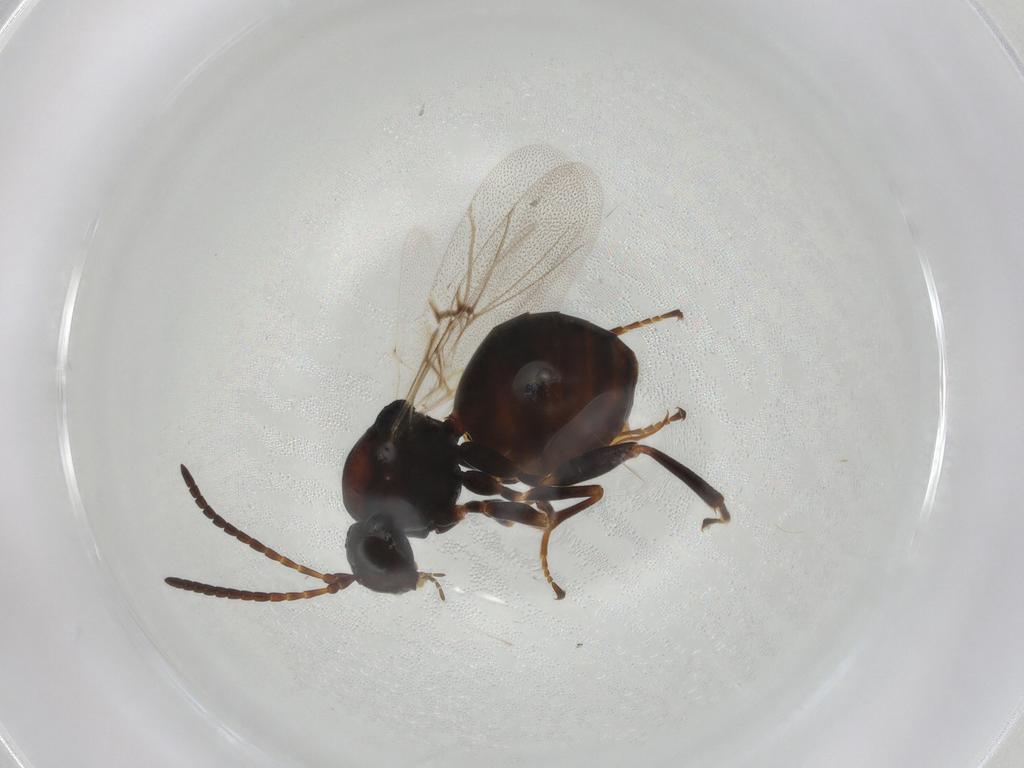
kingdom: Animalia
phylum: Arthropoda
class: Insecta
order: Hymenoptera
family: Cynipidae
